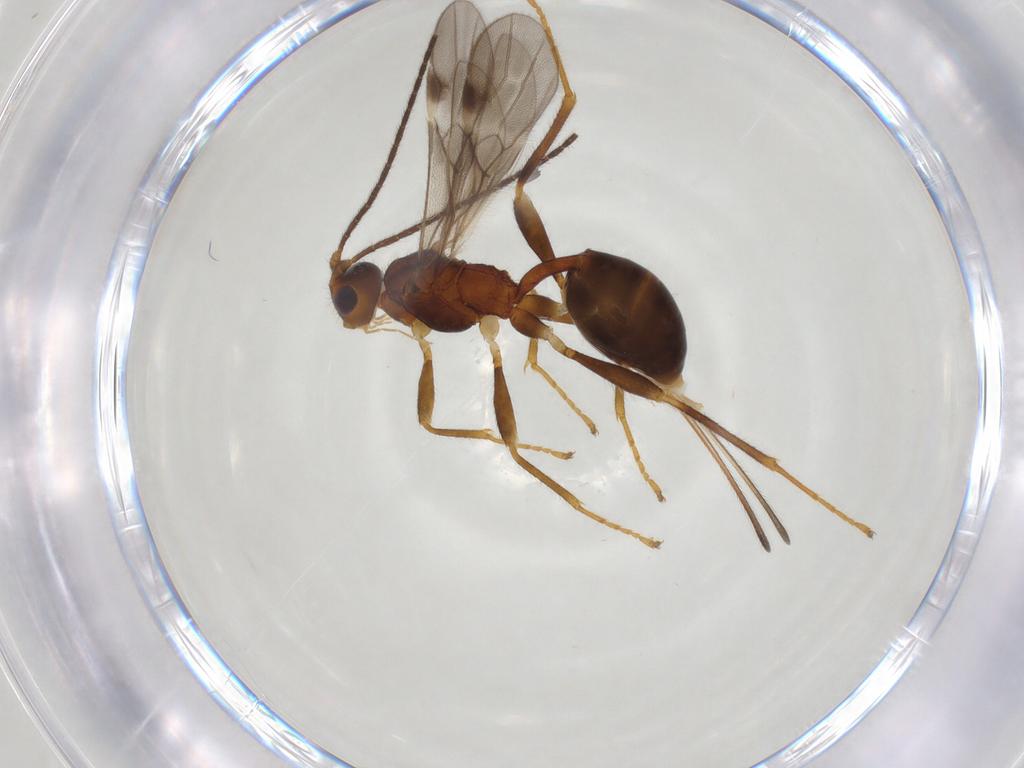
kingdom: Animalia
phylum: Arthropoda
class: Insecta
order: Hymenoptera
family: Braconidae
